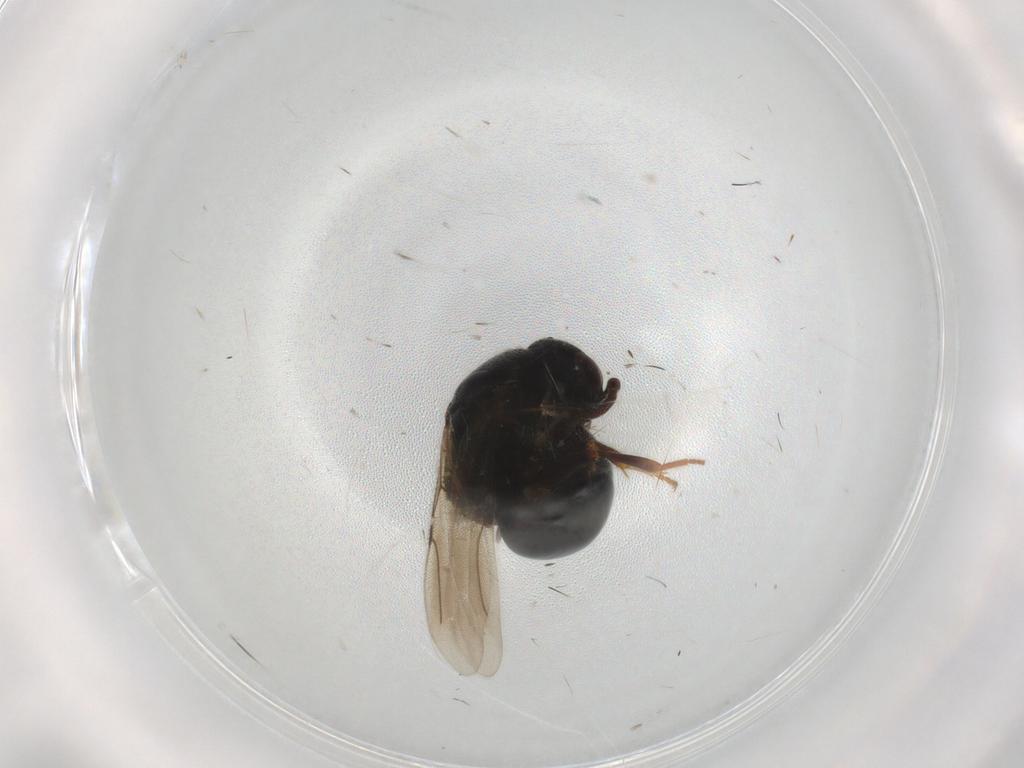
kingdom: Animalia
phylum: Arthropoda
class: Insecta
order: Hymenoptera
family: Bethylidae
